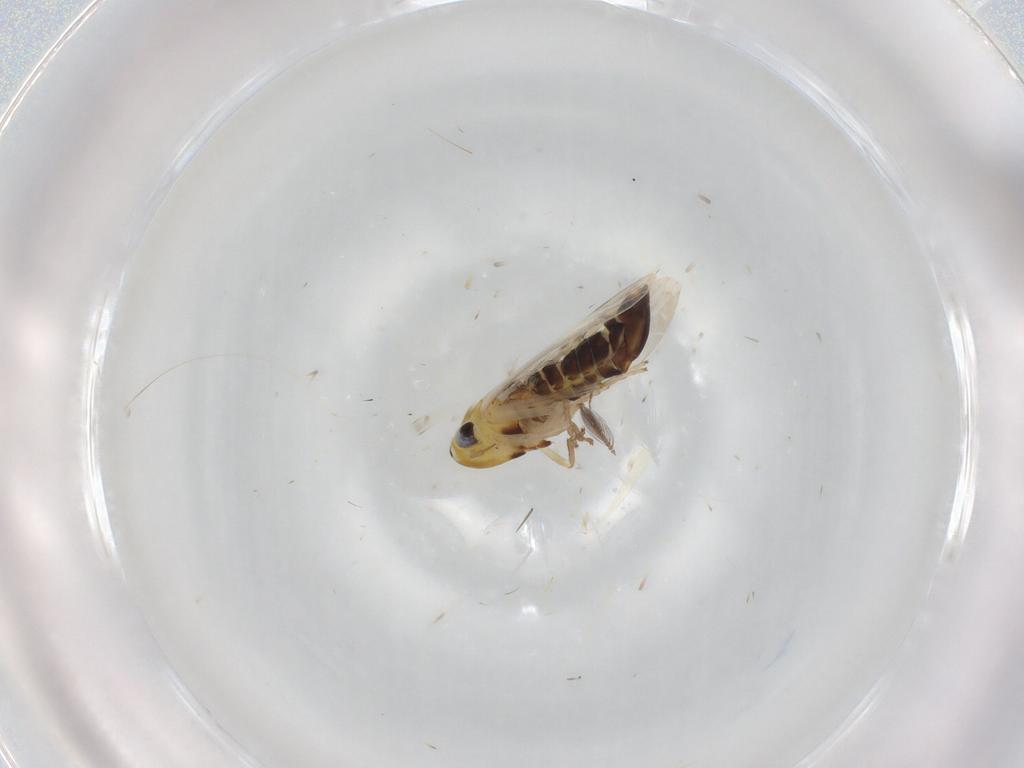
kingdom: Animalia
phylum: Arthropoda
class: Insecta
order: Hemiptera
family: Cicadellidae
